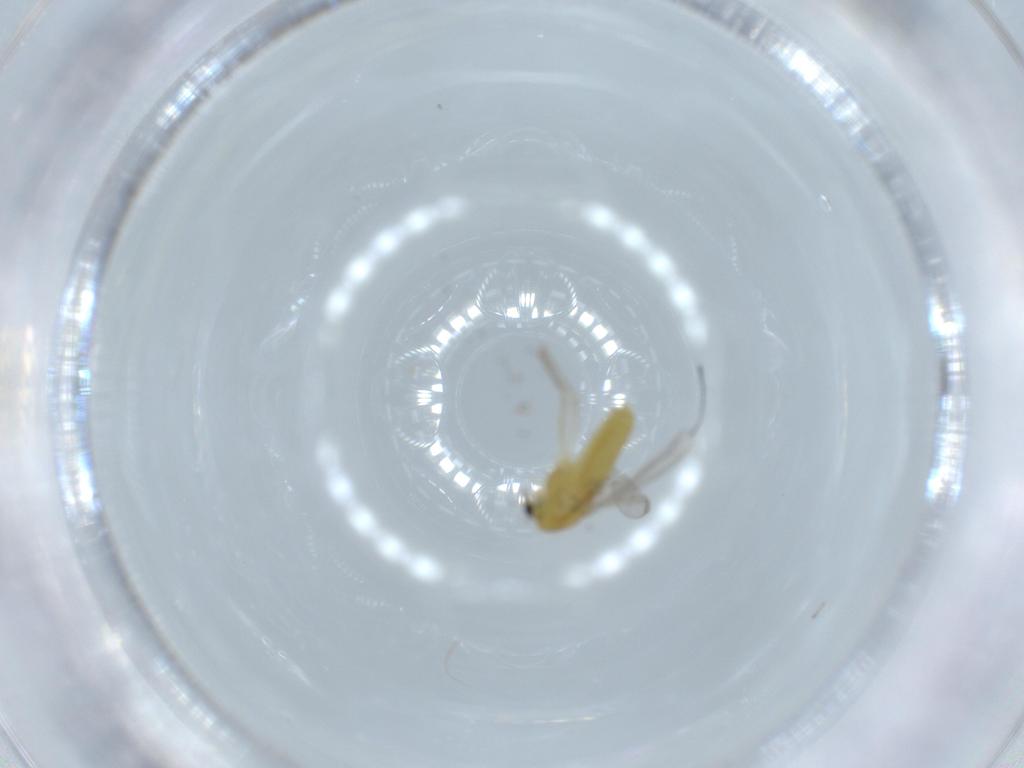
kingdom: Animalia
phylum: Arthropoda
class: Insecta
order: Diptera
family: Chironomidae
